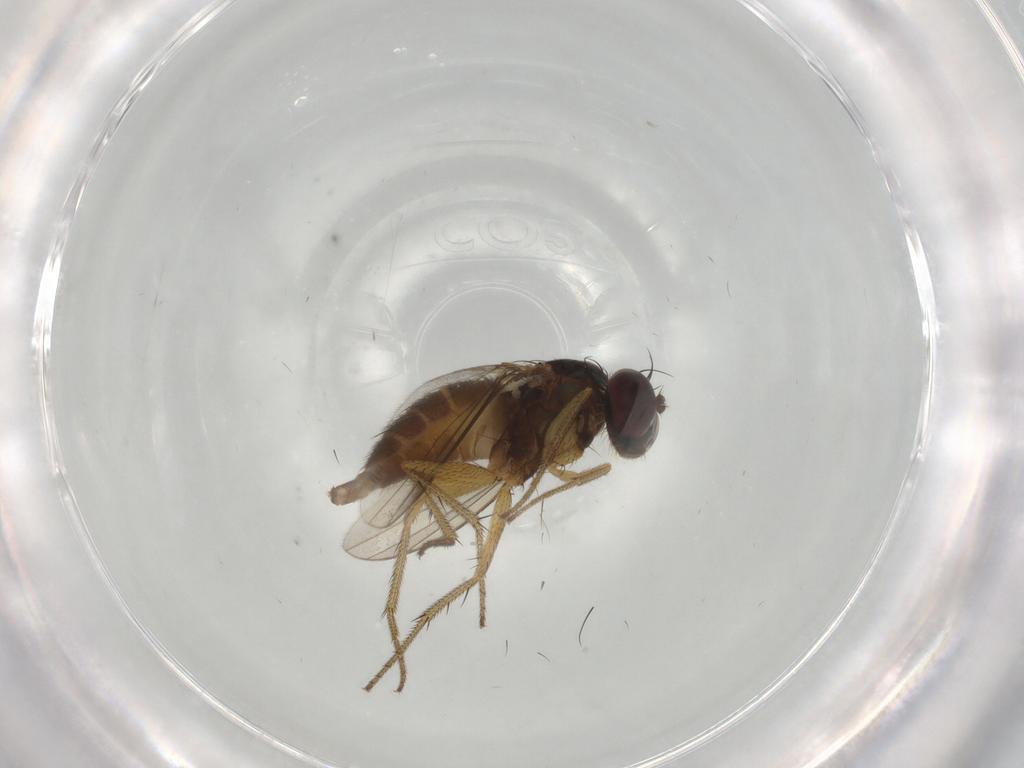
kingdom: Animalia
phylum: Arthropoda
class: Insecta
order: Diptera
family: Dolichopodidae
